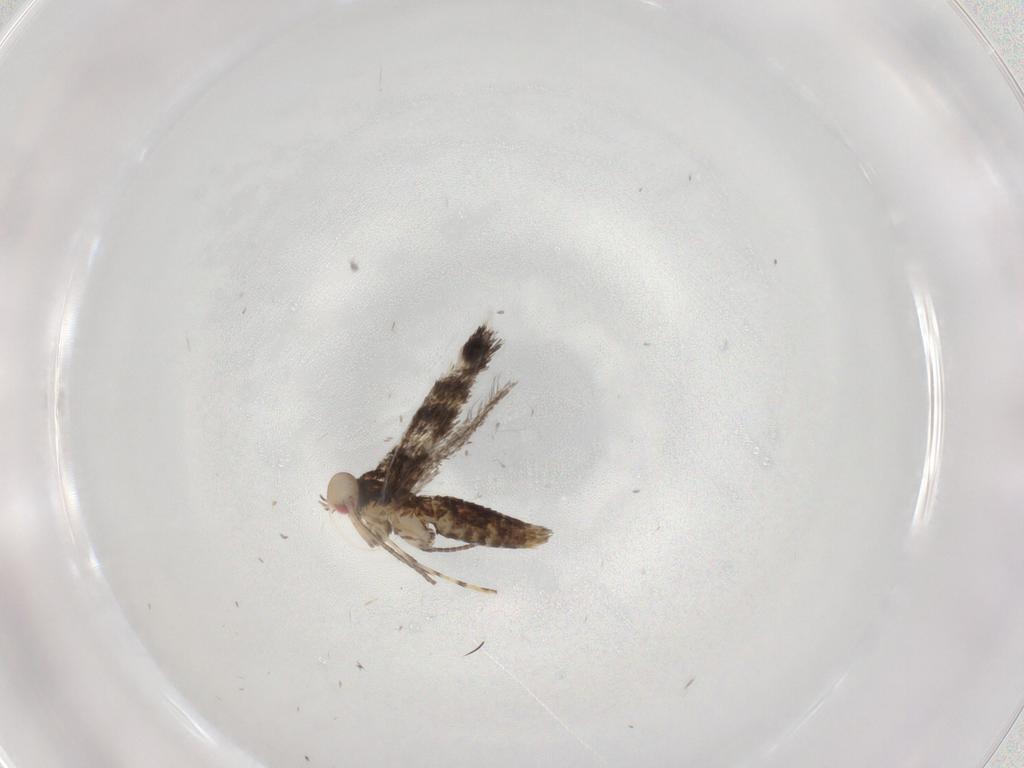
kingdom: Animalia
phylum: Arthropoda
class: Insecta
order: Lepidoptera
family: Gracillariidae
